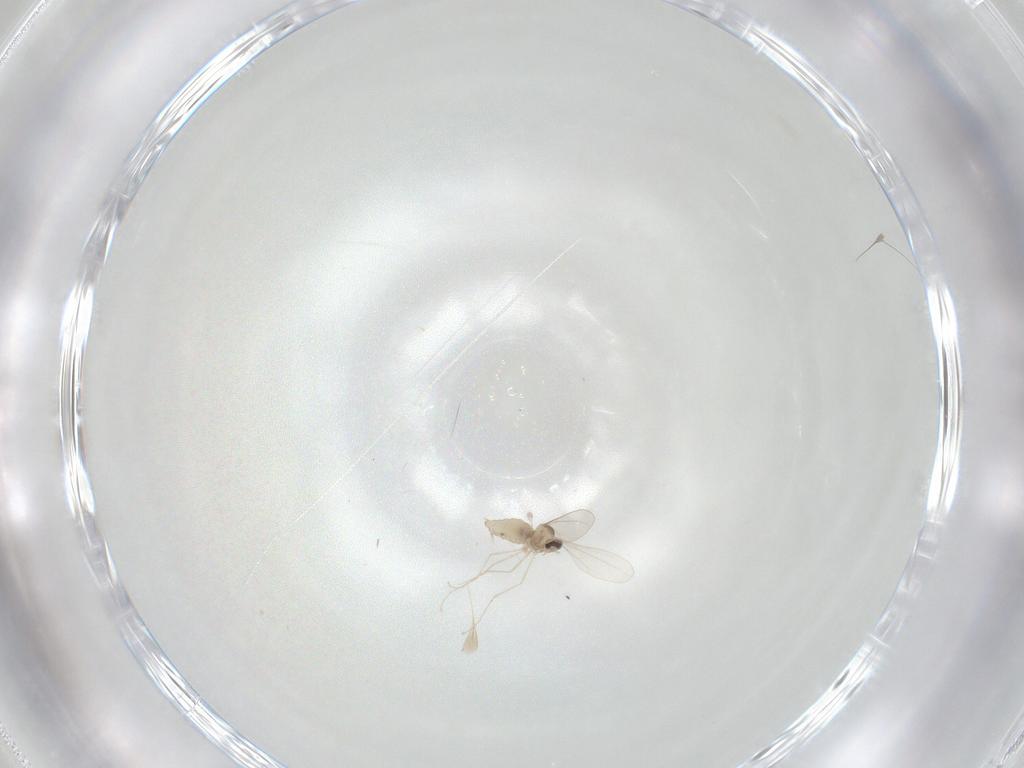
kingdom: Animalia
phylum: Arthropoda
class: Insecta
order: Diptera
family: Cecidomyiidae
